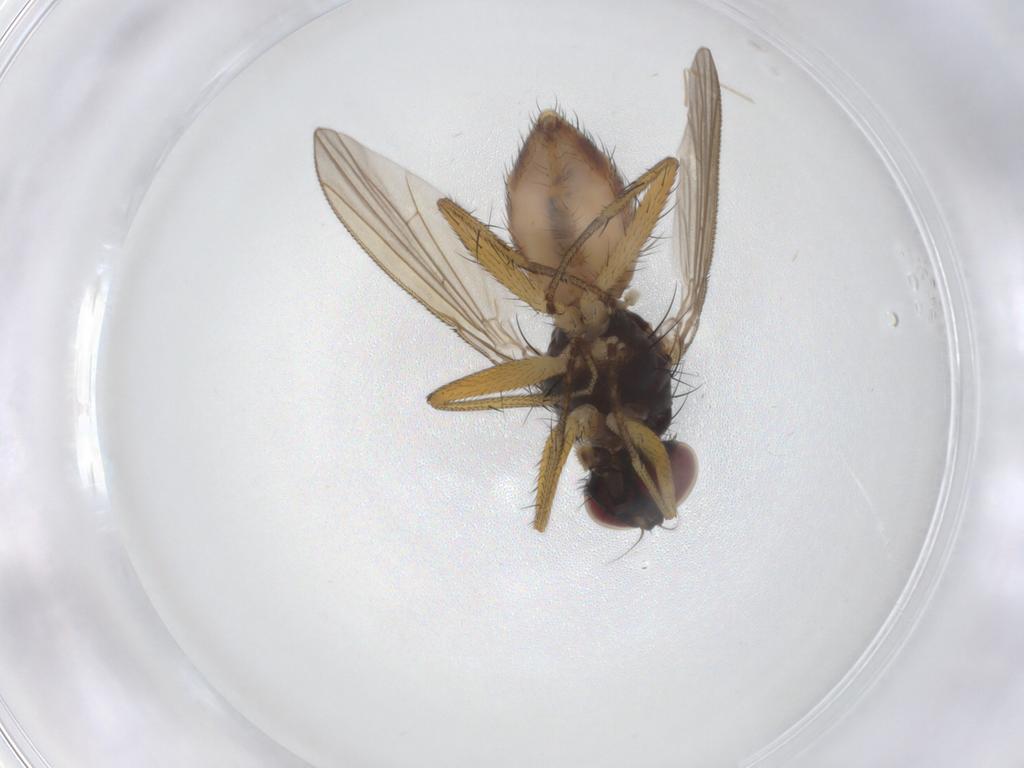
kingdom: Animalia
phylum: Arthropoda
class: Insecta
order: Diptera
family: Muscidae
